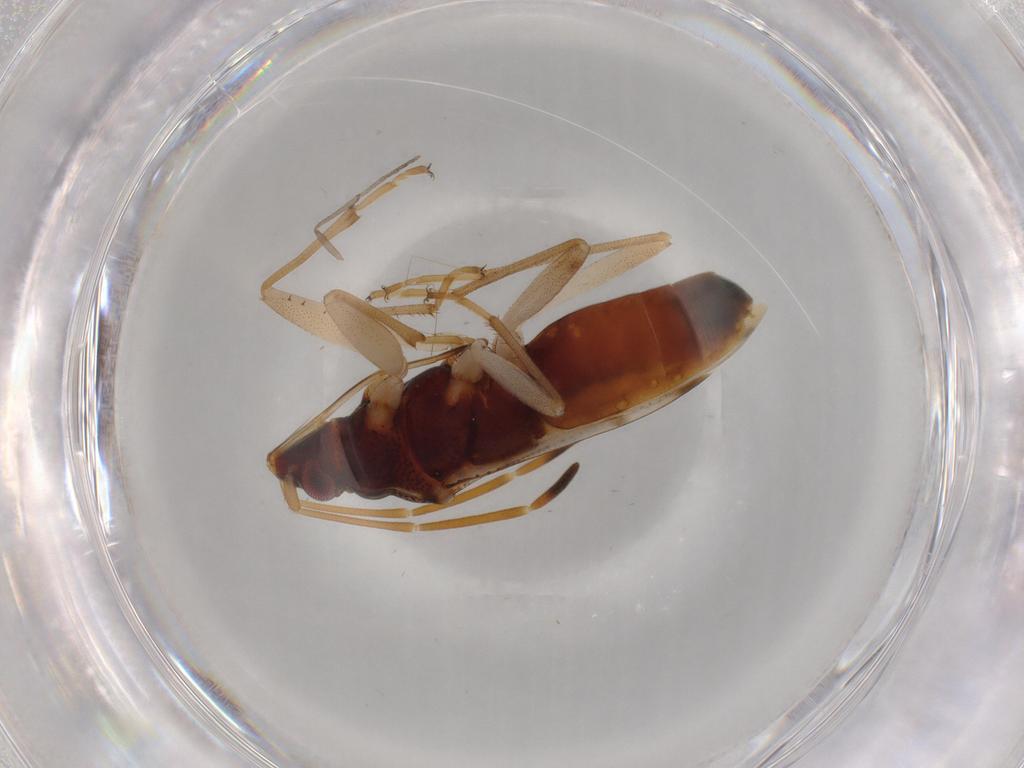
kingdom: Animalia
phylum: Arthropoda
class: Insecta
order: Hemiptera
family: Rhyparochromidae
